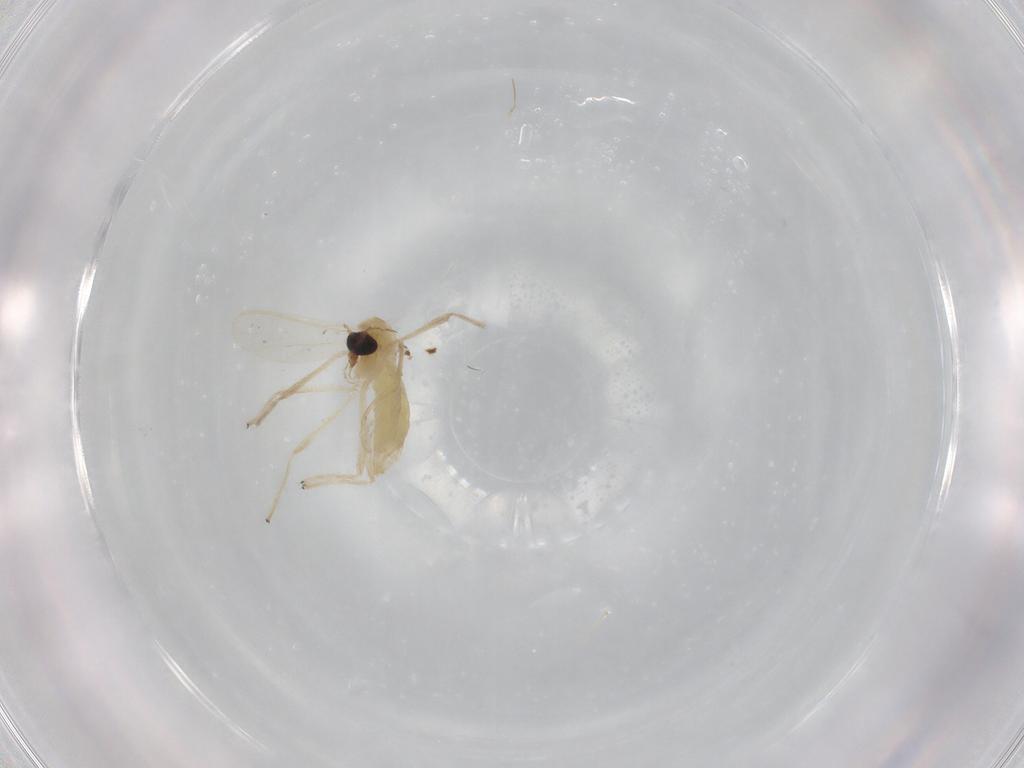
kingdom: Animalia
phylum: Arthropoda
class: Insecta
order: Diptera
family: Chironomidae
